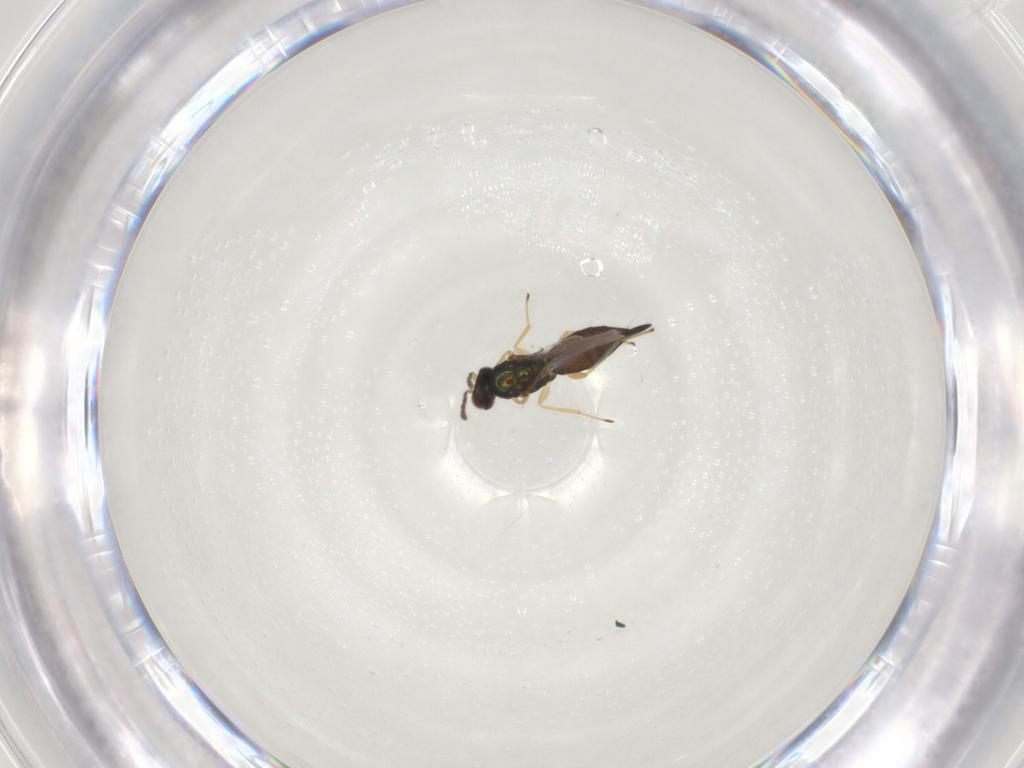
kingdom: Animalia
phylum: Arthropoda
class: Insecta
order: Hymenoptera
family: Eulophidae
